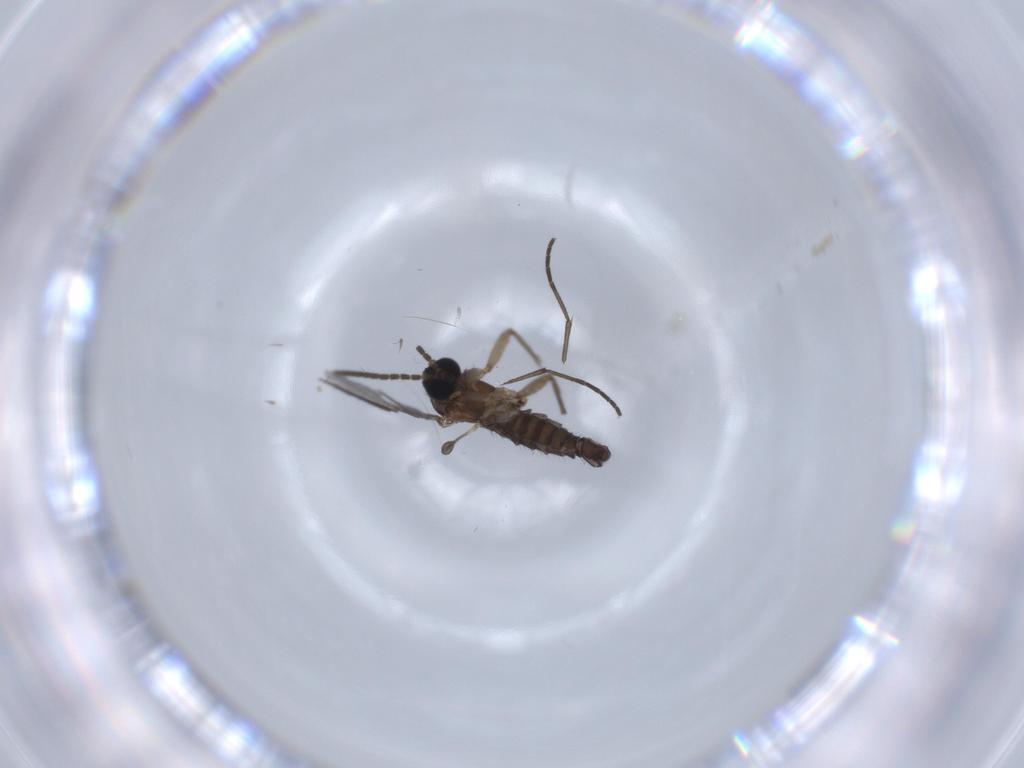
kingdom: Animalia
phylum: Arthropoda
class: Insecta
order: Diptera
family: Sciaridae
